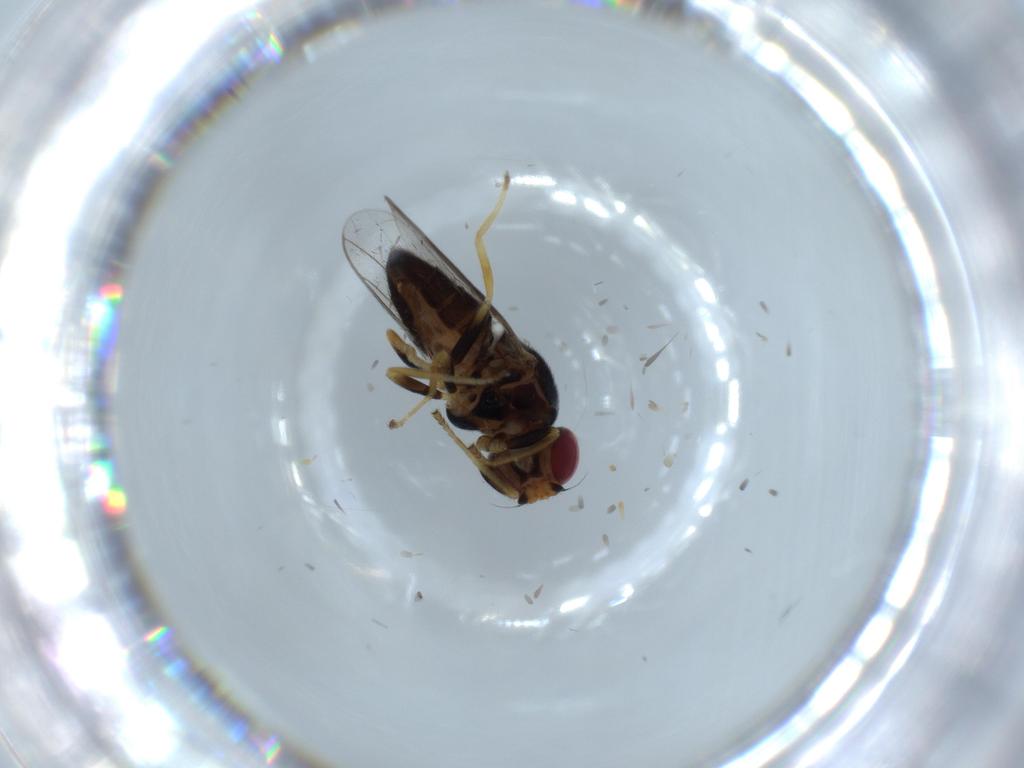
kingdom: Animalia
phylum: Arthropoda
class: Insecta
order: Diptera
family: Chloropidae
